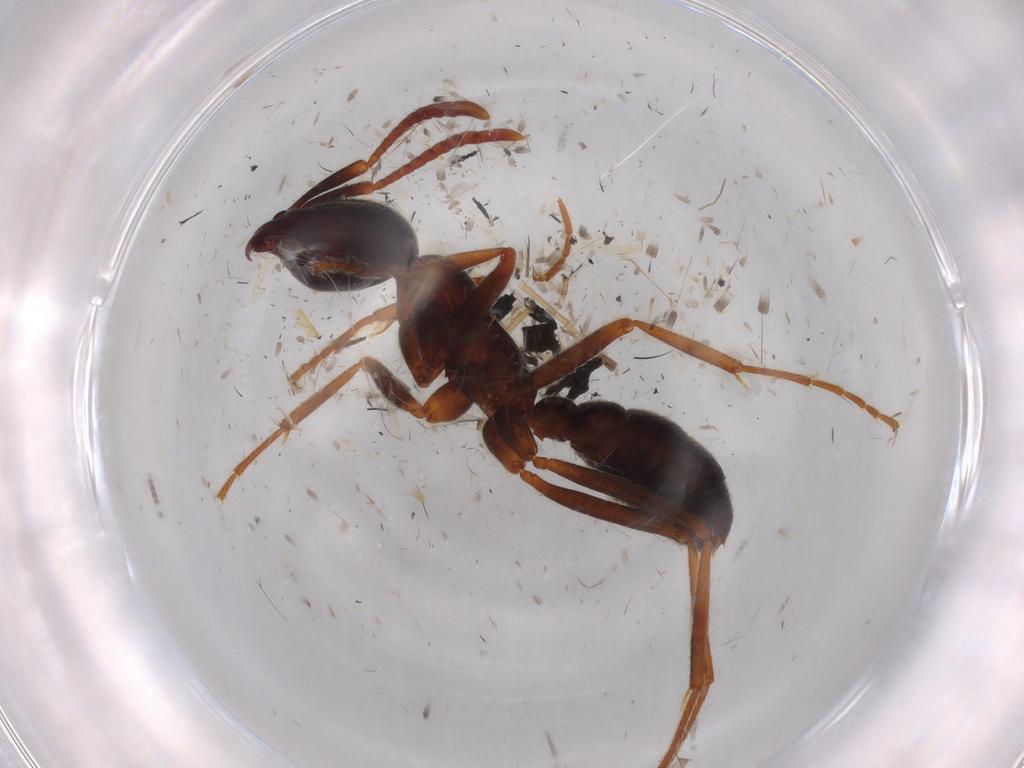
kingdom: Animalia
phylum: Arthropoda
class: Insecta
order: Hymenoptera
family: Formicidae
